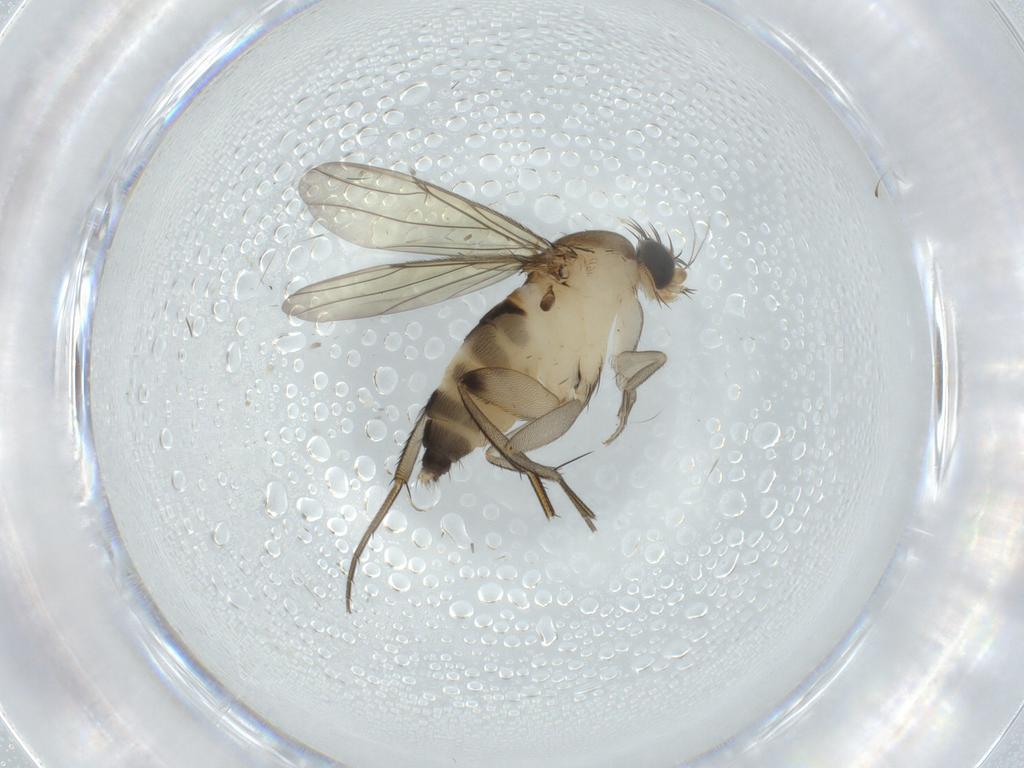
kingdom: Animalia
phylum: Arthropoda
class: Insecta
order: Diptera
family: Phoridae
